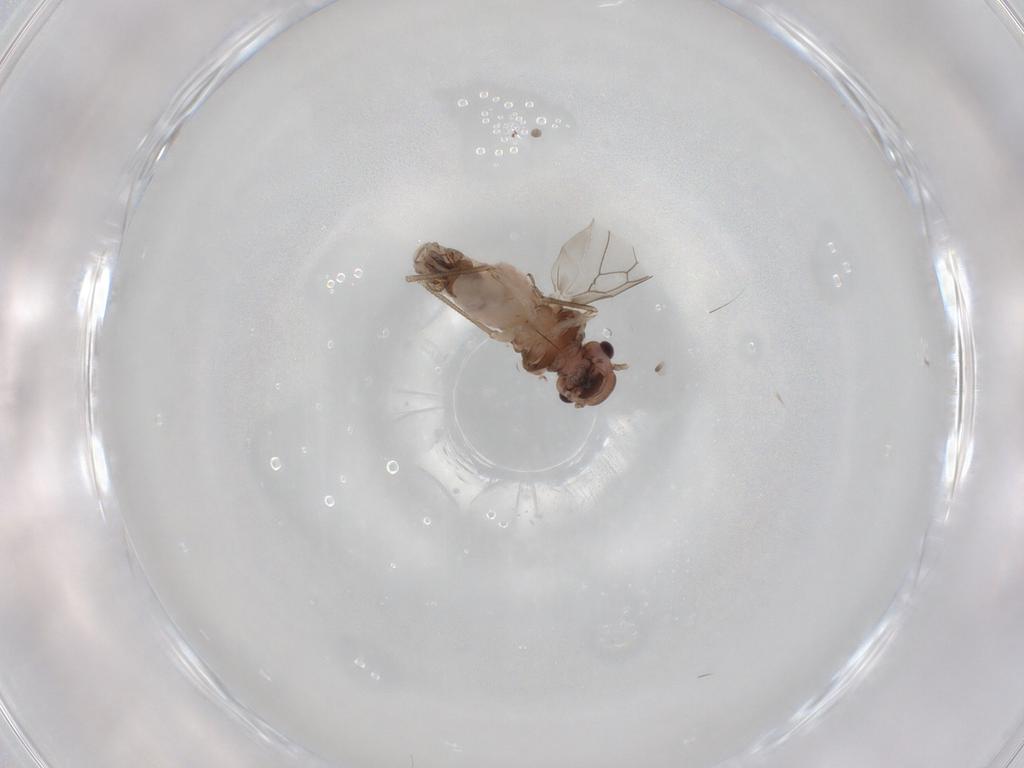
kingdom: Animalia
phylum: Arthropoda
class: Insecta
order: Psocodea
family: Peripsocidae
